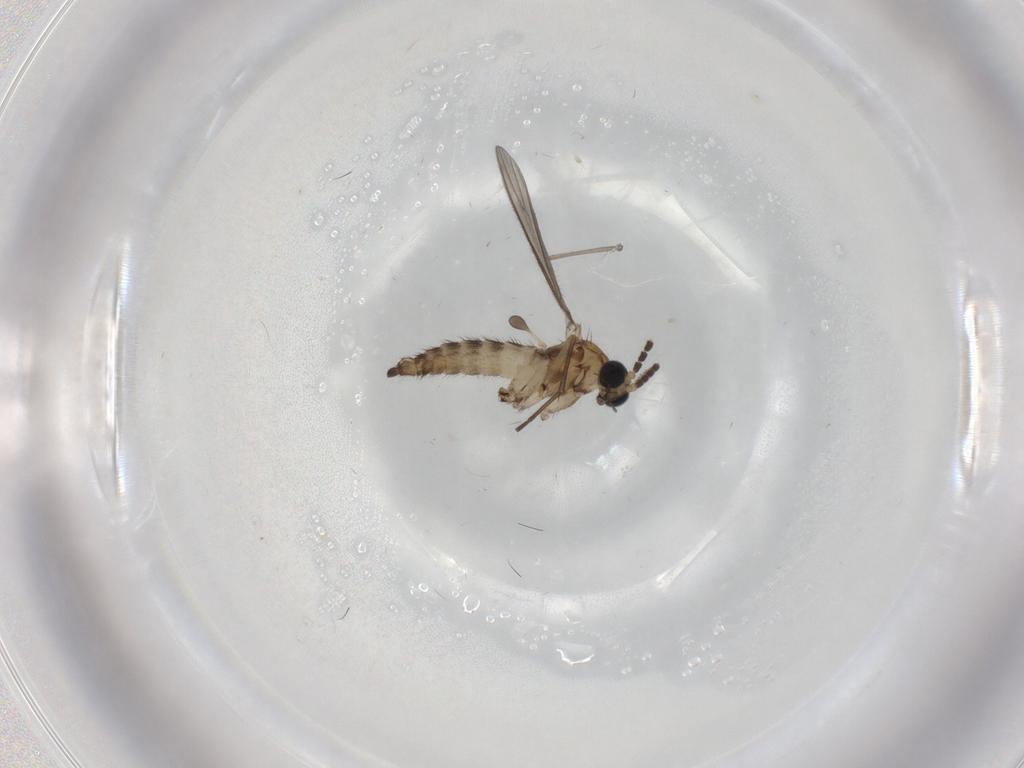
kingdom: Animalia
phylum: Arthropoda
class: Insecta
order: Diptera
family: Sciaridae
